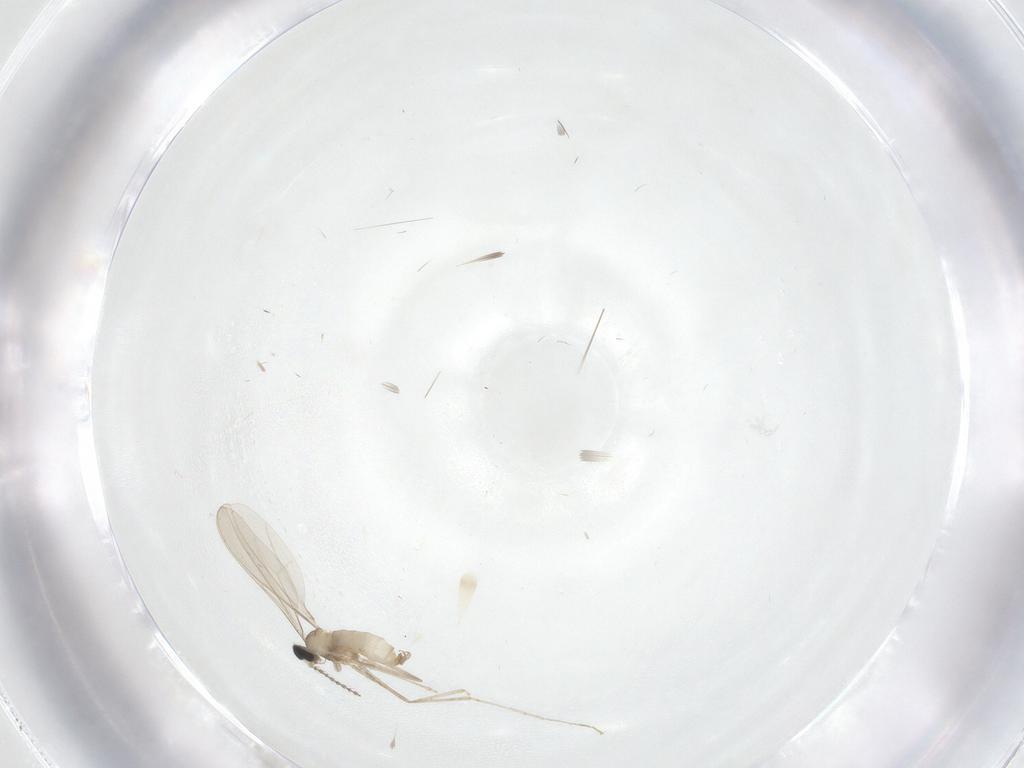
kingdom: Animalia
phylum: Arthropoda
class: Insecta
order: Diptera
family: Cecidomyiidae
